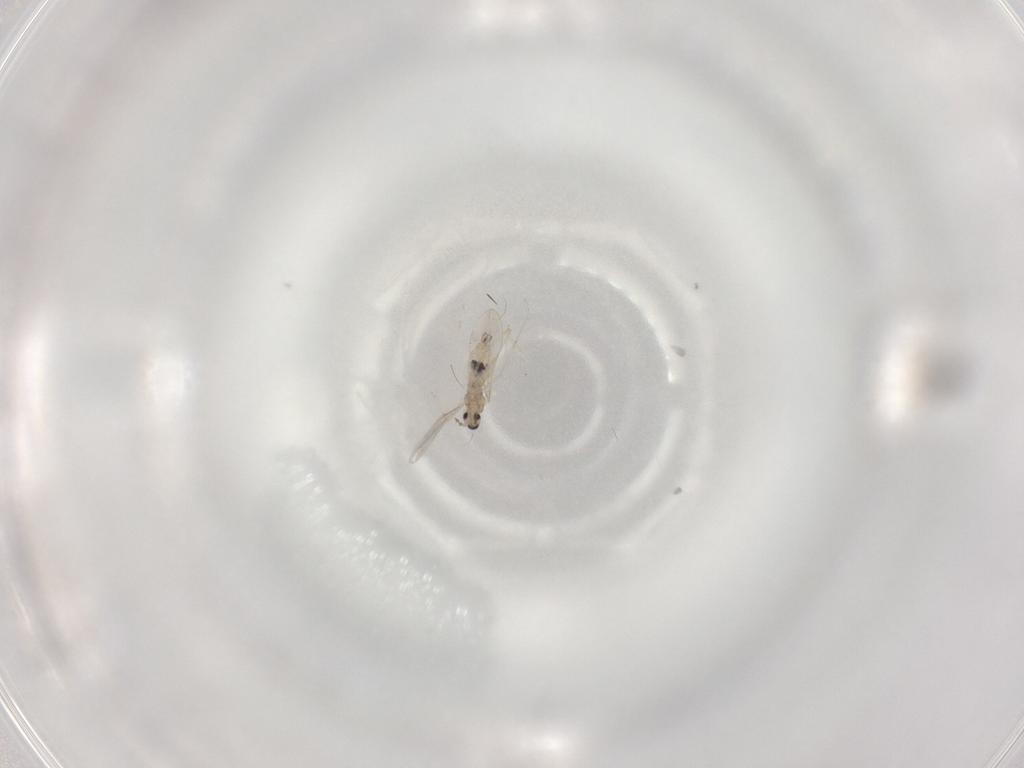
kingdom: Animalia
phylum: Arthropoda
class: Insecta
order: Diptera
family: Cecidomyiidae
